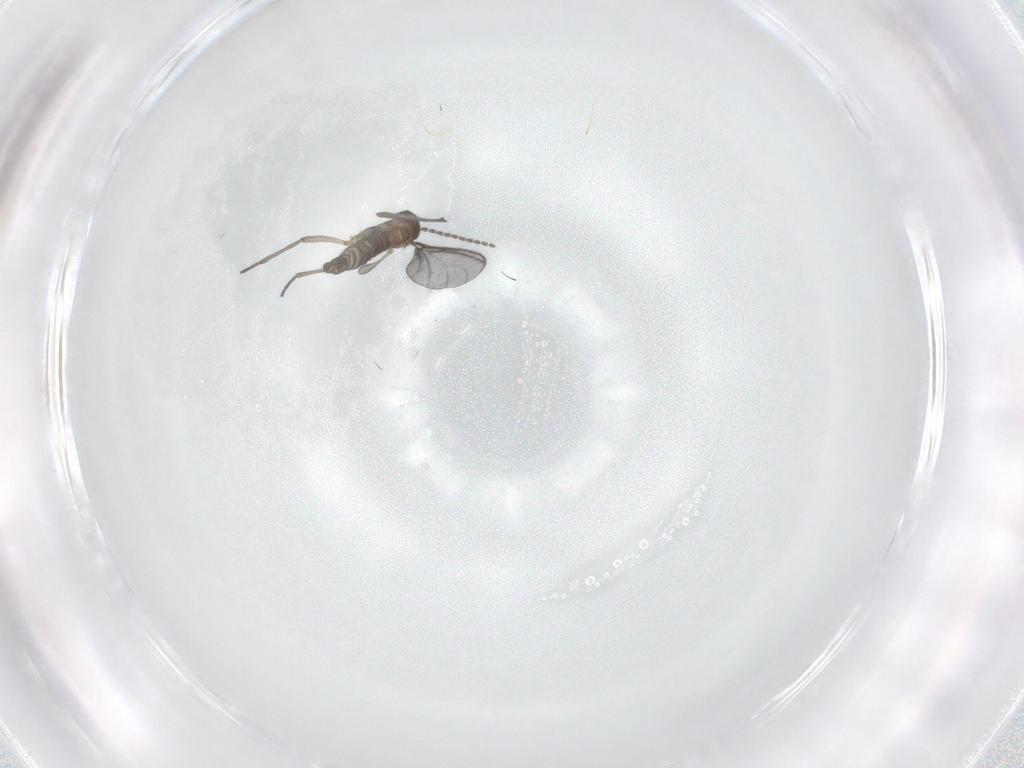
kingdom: Animalia
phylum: Arthropoda
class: Insecta
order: Diptera
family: Sciaridae
